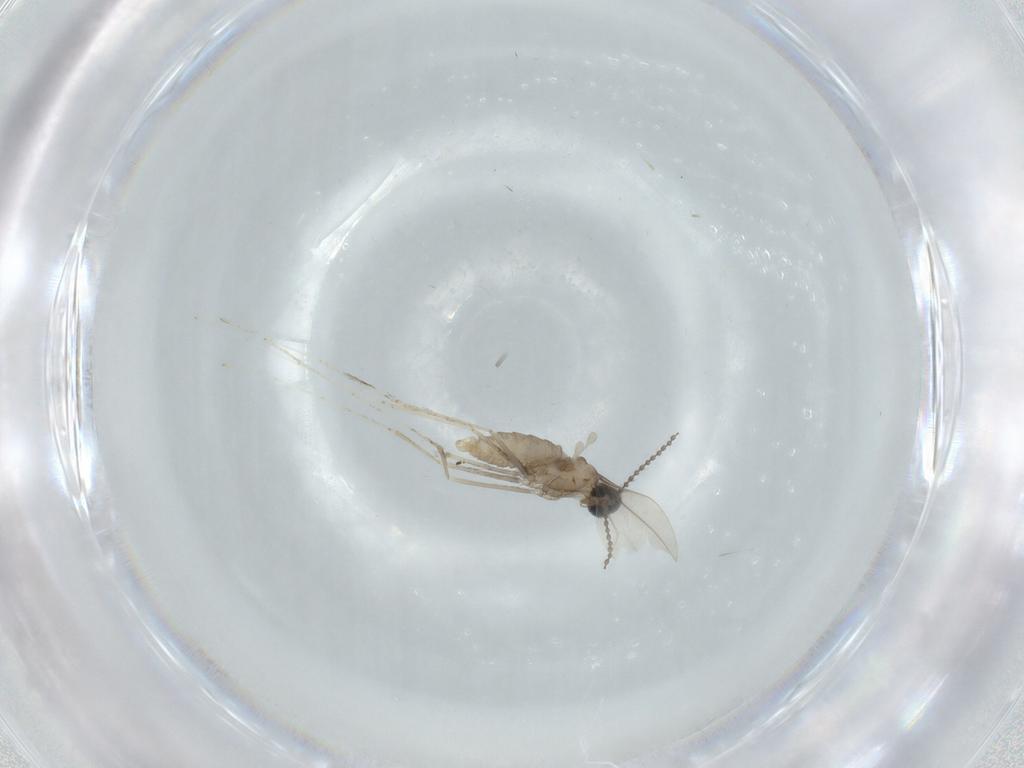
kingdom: Animalia
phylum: Arthropoda
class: Insecta
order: Diptera
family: Cecidomyiidae
